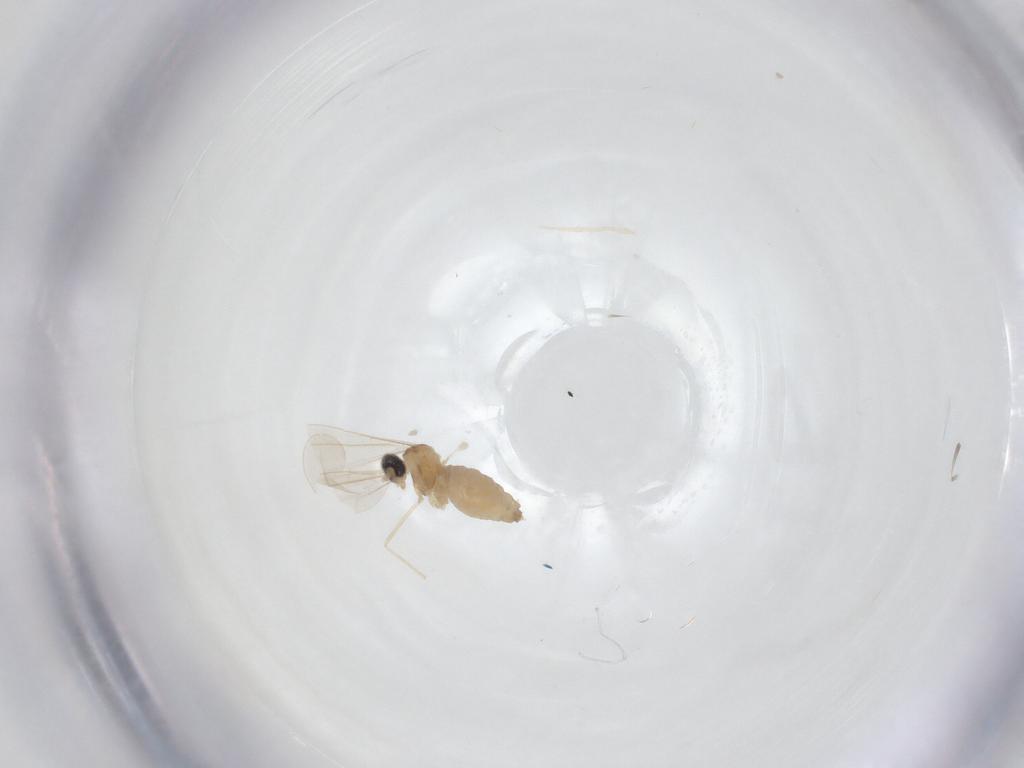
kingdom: Animalia
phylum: Arthropoda
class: Insecta
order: Diptera
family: Cecidomyiidae
